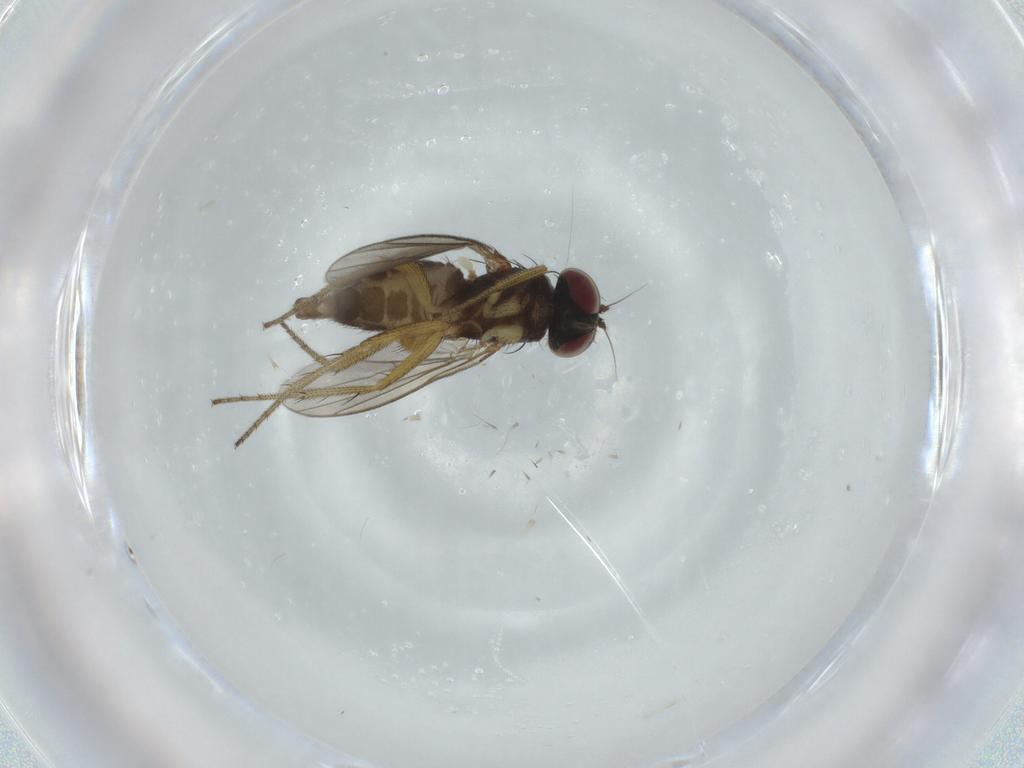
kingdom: Animalia
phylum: Arthropoda
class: Insecta
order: Diptera
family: Dolichopodidae
